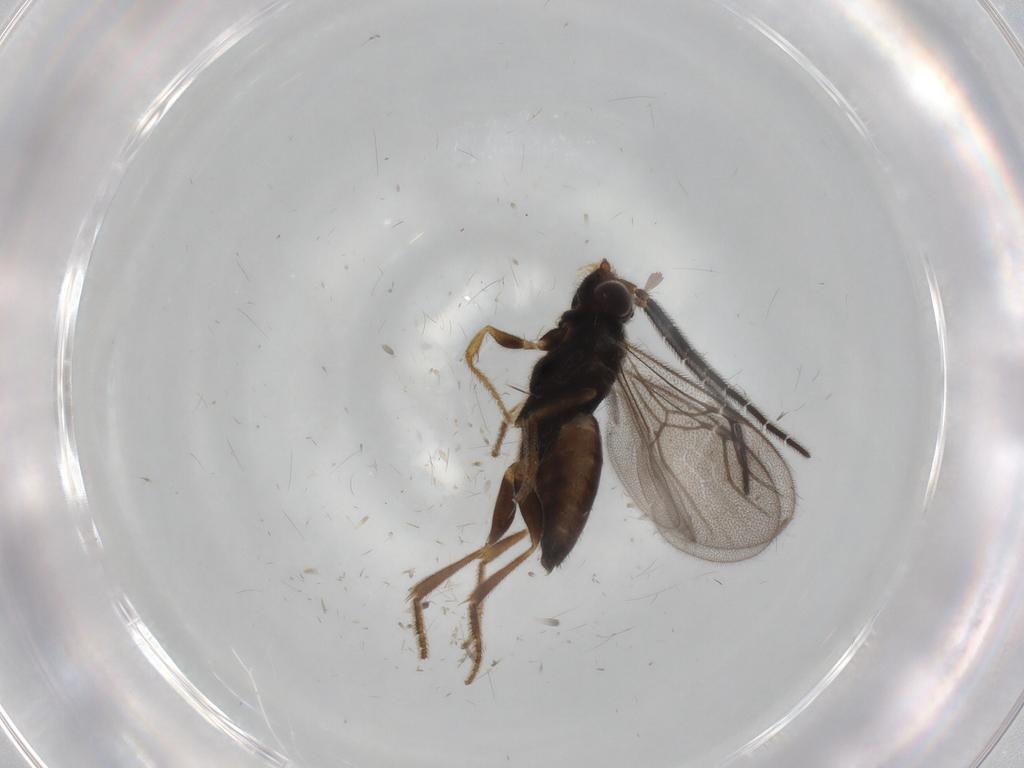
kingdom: Animalia
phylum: Arthropoda
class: Insecta
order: Hymenoptera
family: Dryinidae
